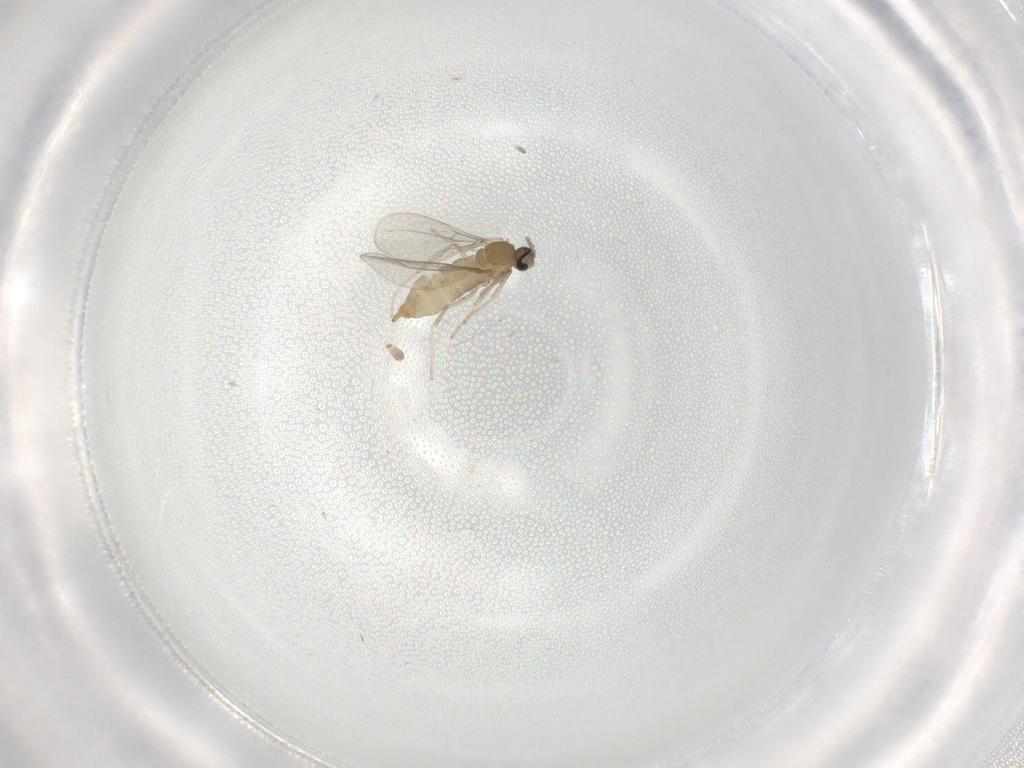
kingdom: Animalia
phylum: Arthropoda
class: Insecta
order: Diptera
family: Cecidomyiidae
